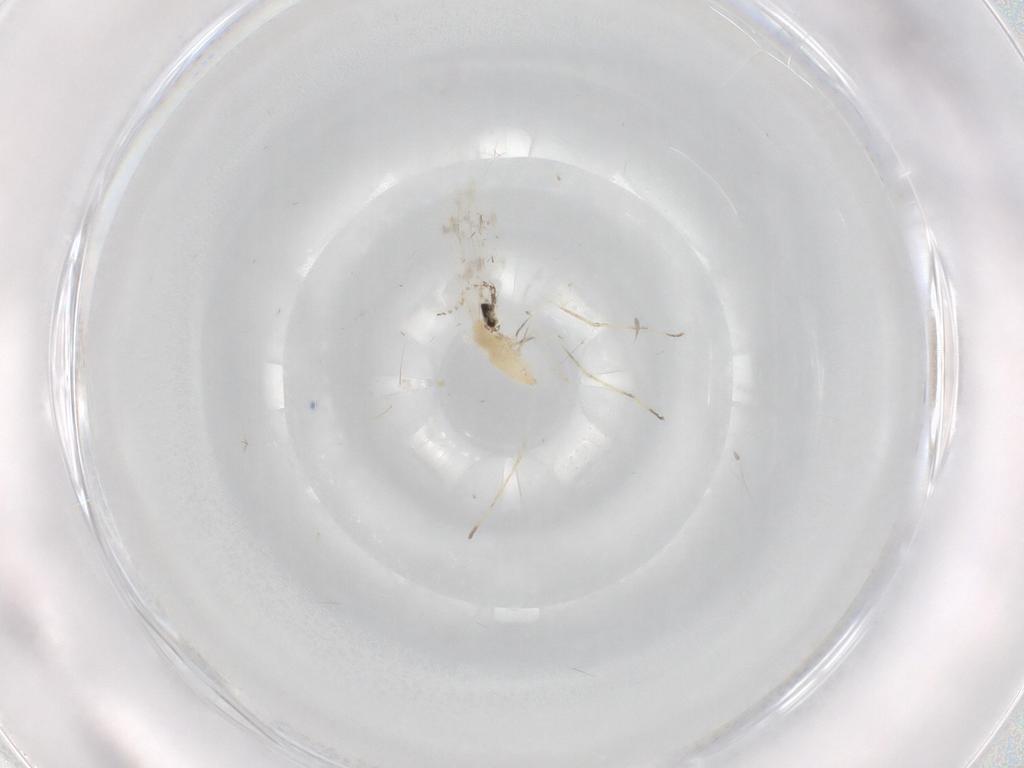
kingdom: Animalia
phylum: Arthropoda
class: Insecta
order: Diptera
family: Cecidomyiidae
